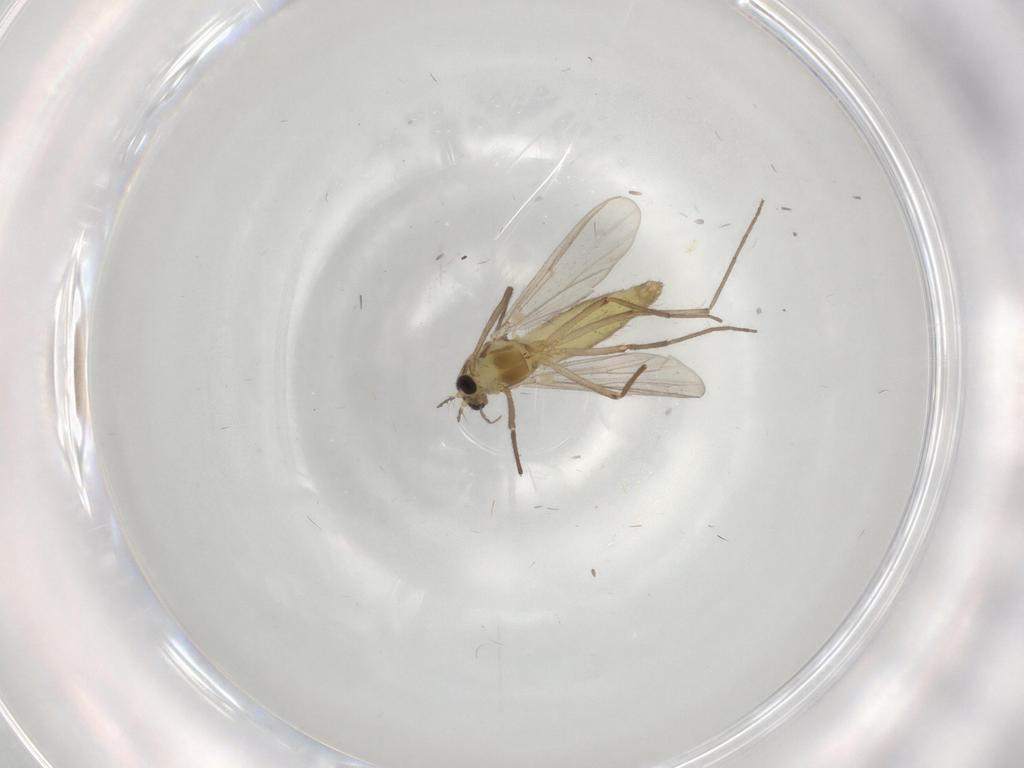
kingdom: Animalia
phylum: Arthropoda
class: Insecta
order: Diptera
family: Chironomidae
